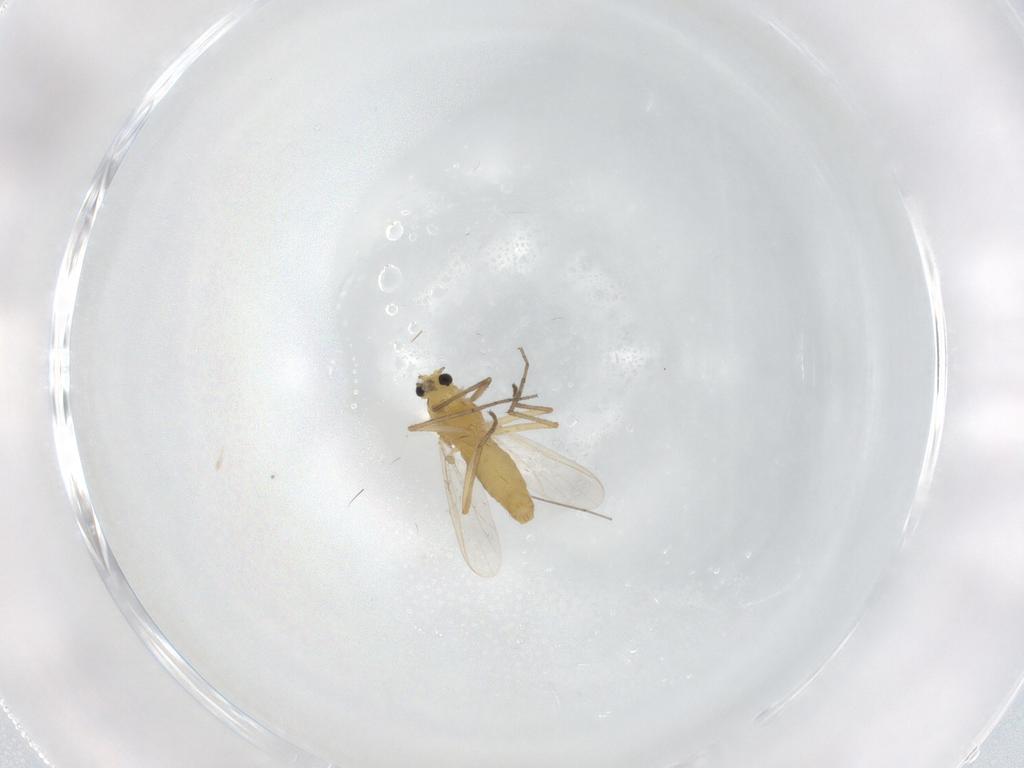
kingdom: Animalia
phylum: Arthropoda
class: Insecta
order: Diptera
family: Chironomidae
